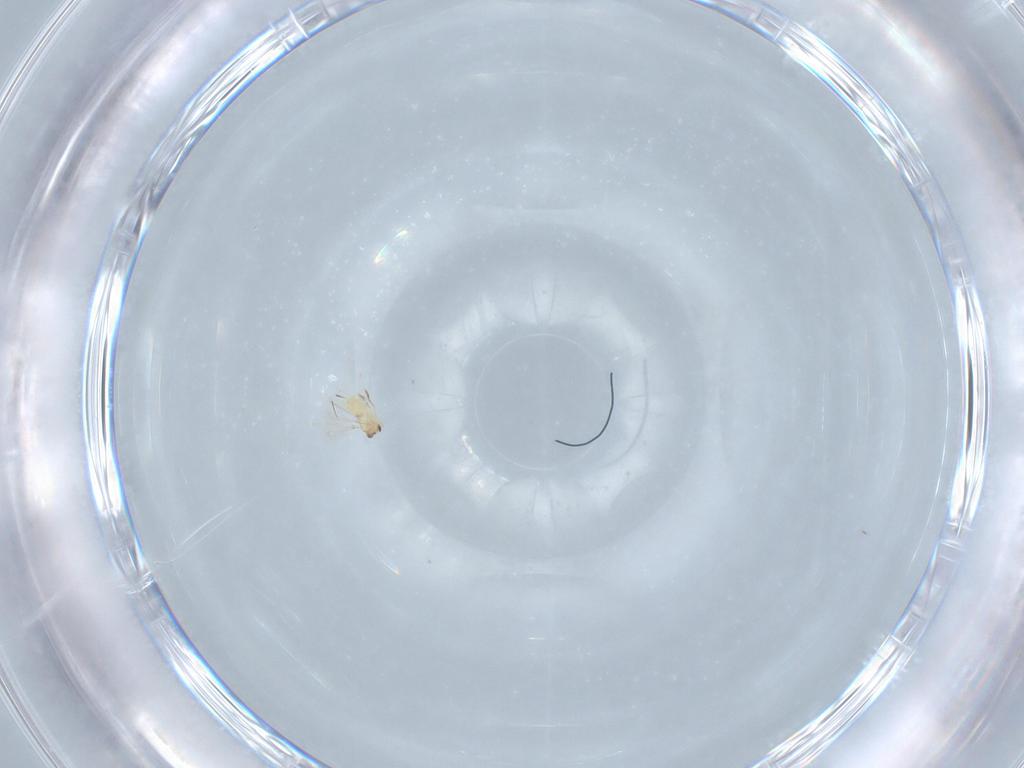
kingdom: Animalia
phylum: Arthropoda
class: Insecta
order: Hymenoptera
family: Mymaridae
